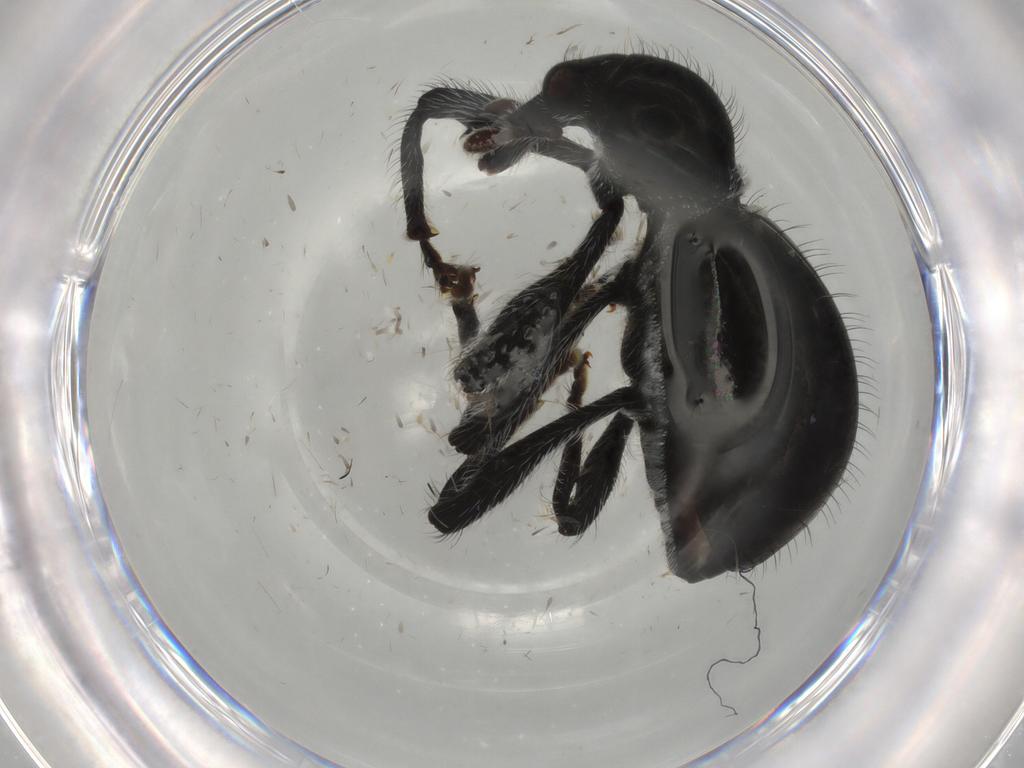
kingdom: Animalia
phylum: Arthropoda
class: Insecta
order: Coleoptera
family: Curculionidae
